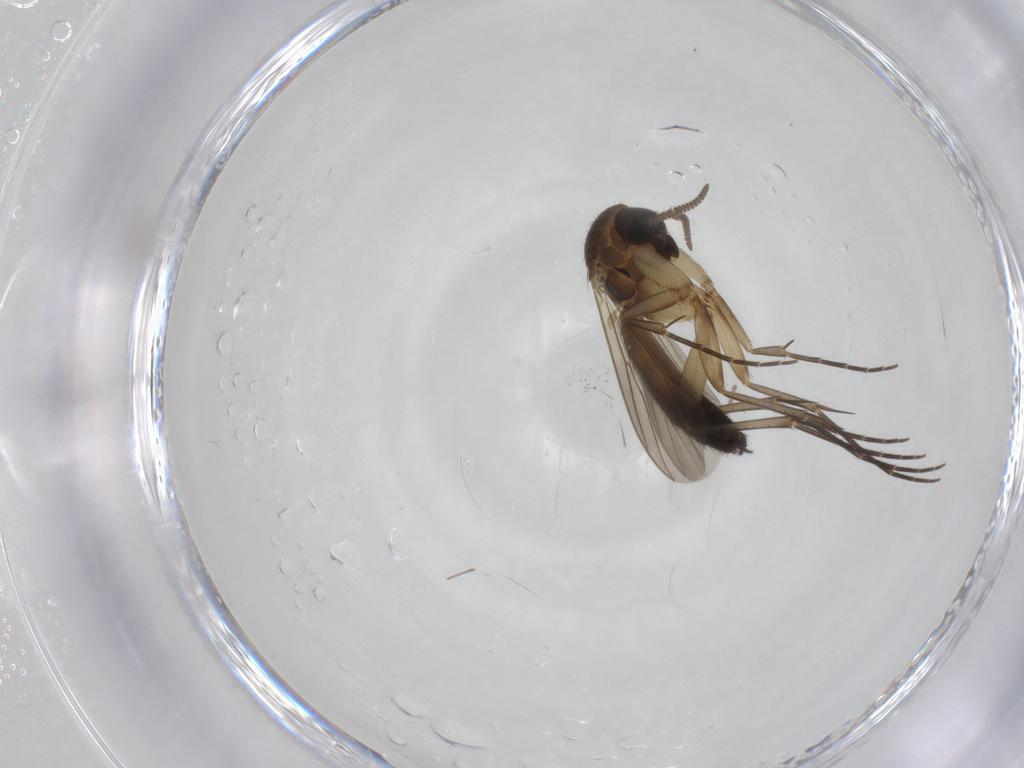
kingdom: Animalia
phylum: Arthropoda
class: Insecta
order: Diptera
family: Mycetophilidae
